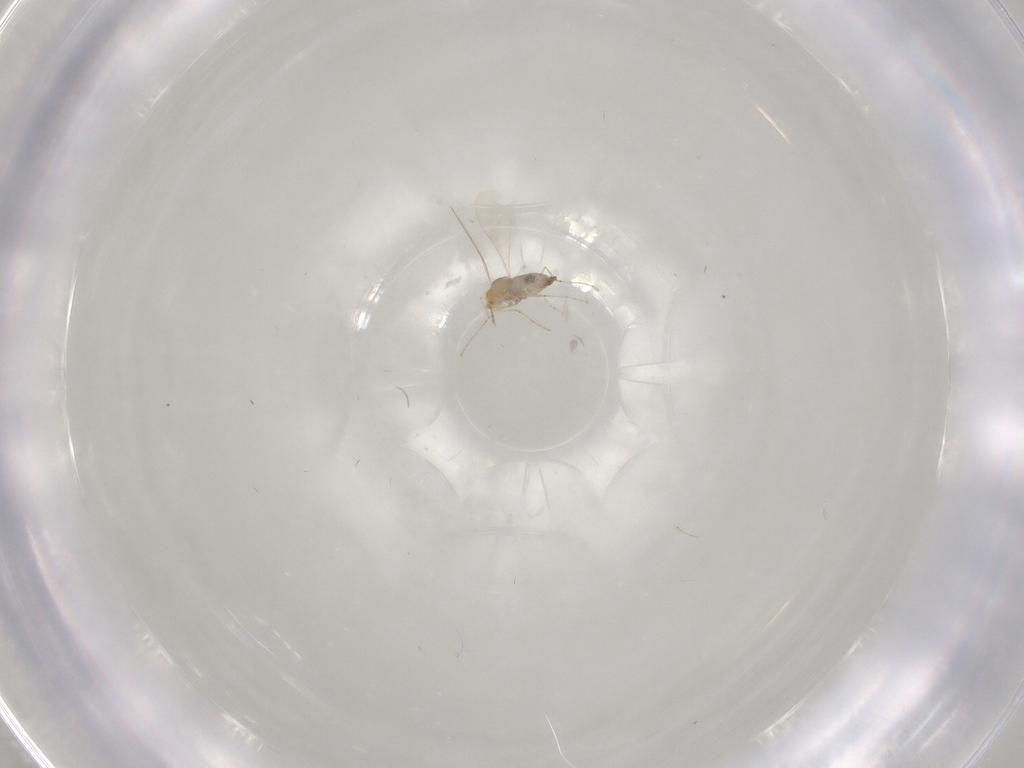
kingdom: Animalia
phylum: Arthropoda
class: Insecta
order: Diptera
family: Cecidomyiidae
